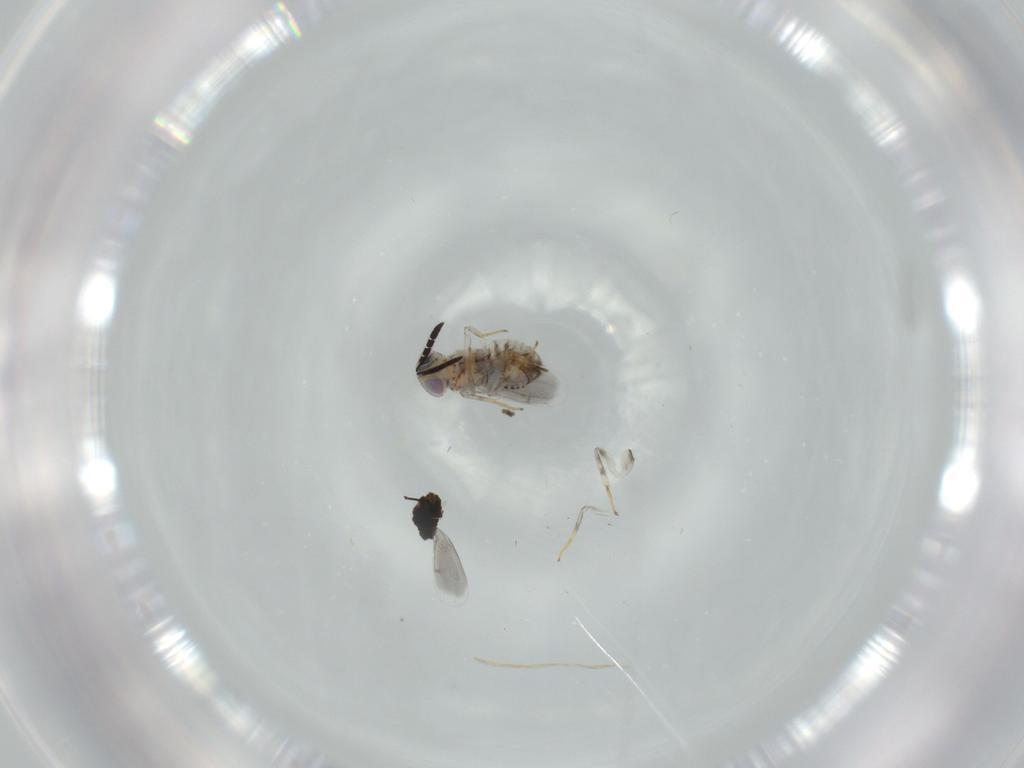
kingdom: Animalia
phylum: Arthropoda
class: Insecta
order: Hymenoptera
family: Aphelinidae
